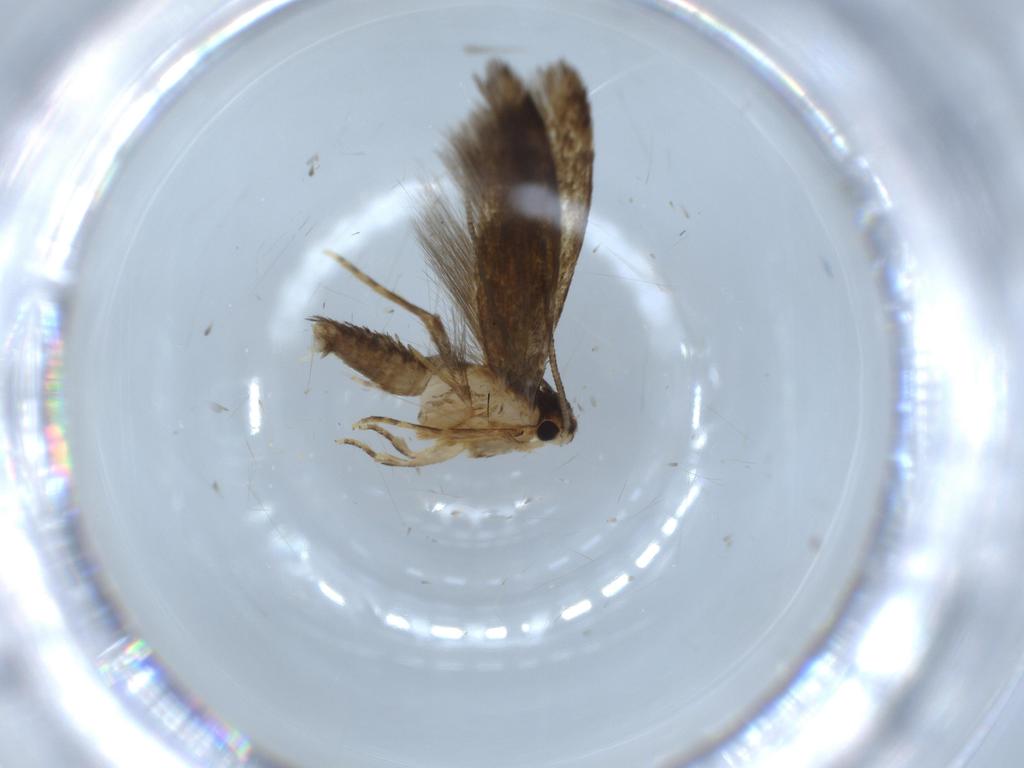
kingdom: Animalia
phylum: Arthropoda
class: Insecta
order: Lepidoptera
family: Tineidae
